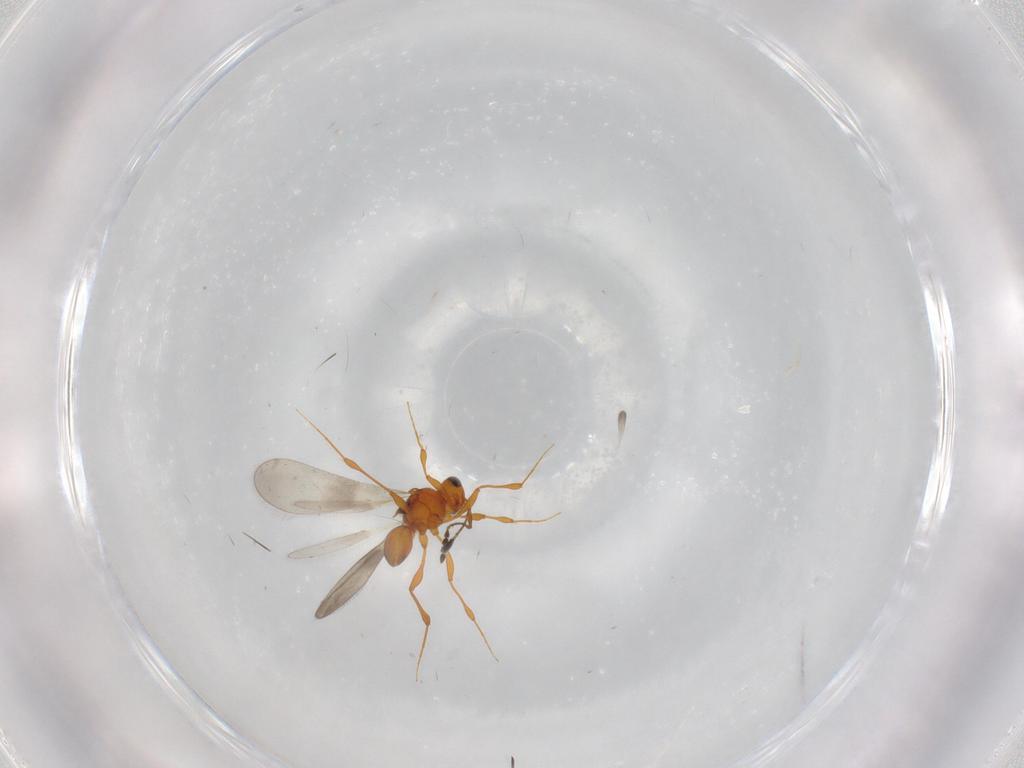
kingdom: Animalia
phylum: Arthropoda
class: Insecta
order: Hymenoptera
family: Platygastridae
